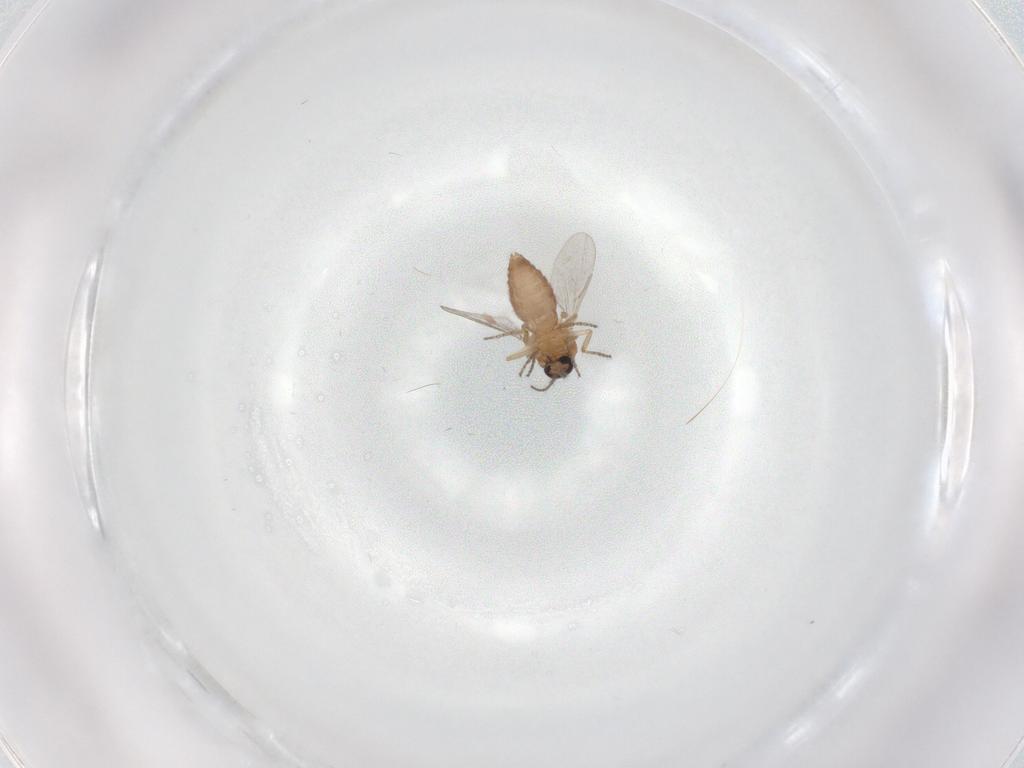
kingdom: Animalia
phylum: Arthropoda
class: Insecta
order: Diptera
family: Ceratopogonidae
